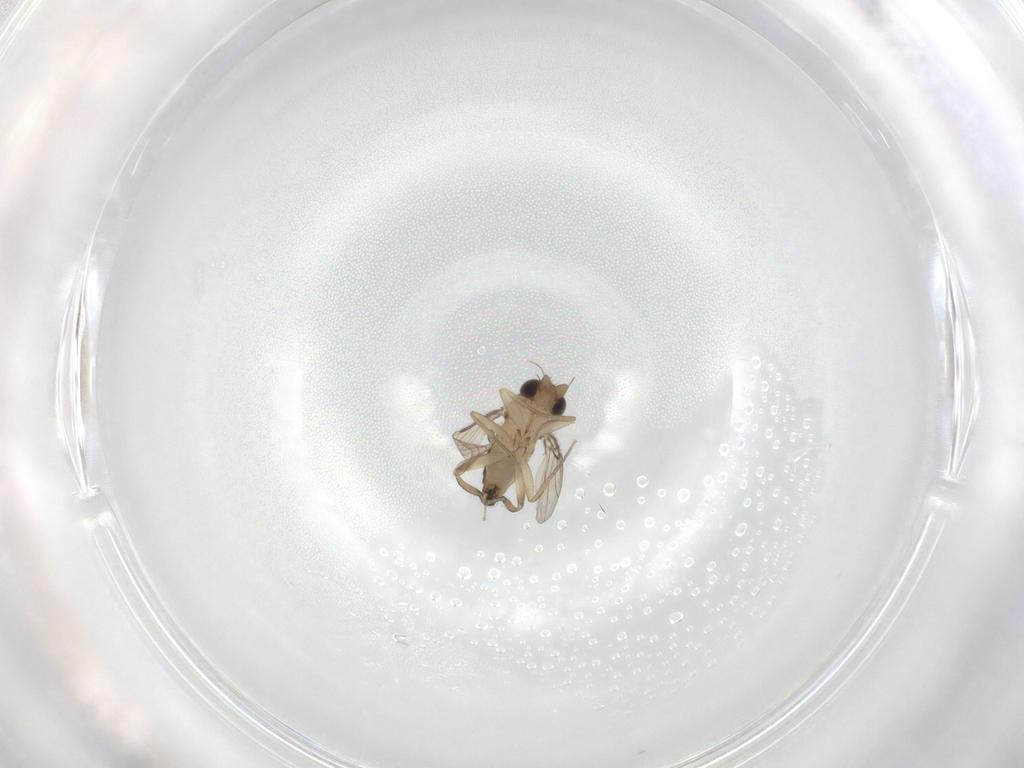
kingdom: Animalia
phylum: Arthropoda
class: Insecta
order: Diptera
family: Phoridae
